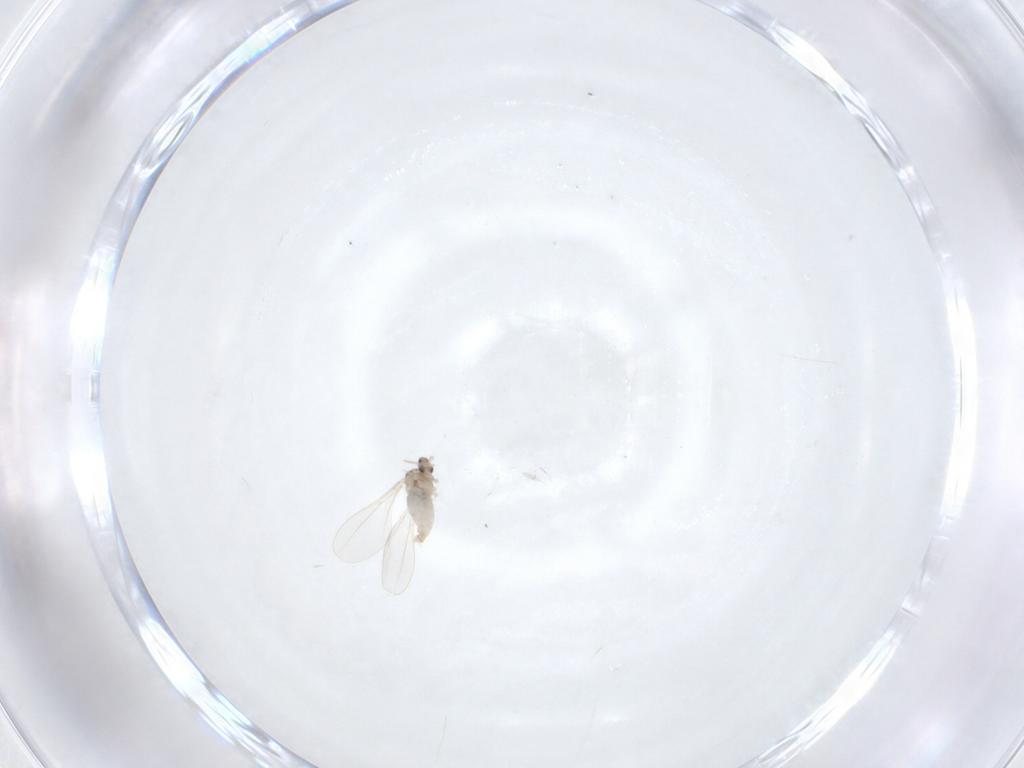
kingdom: Animalia
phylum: Arthropoda
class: Insecta
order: Diptera
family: Cecidomyiidae
